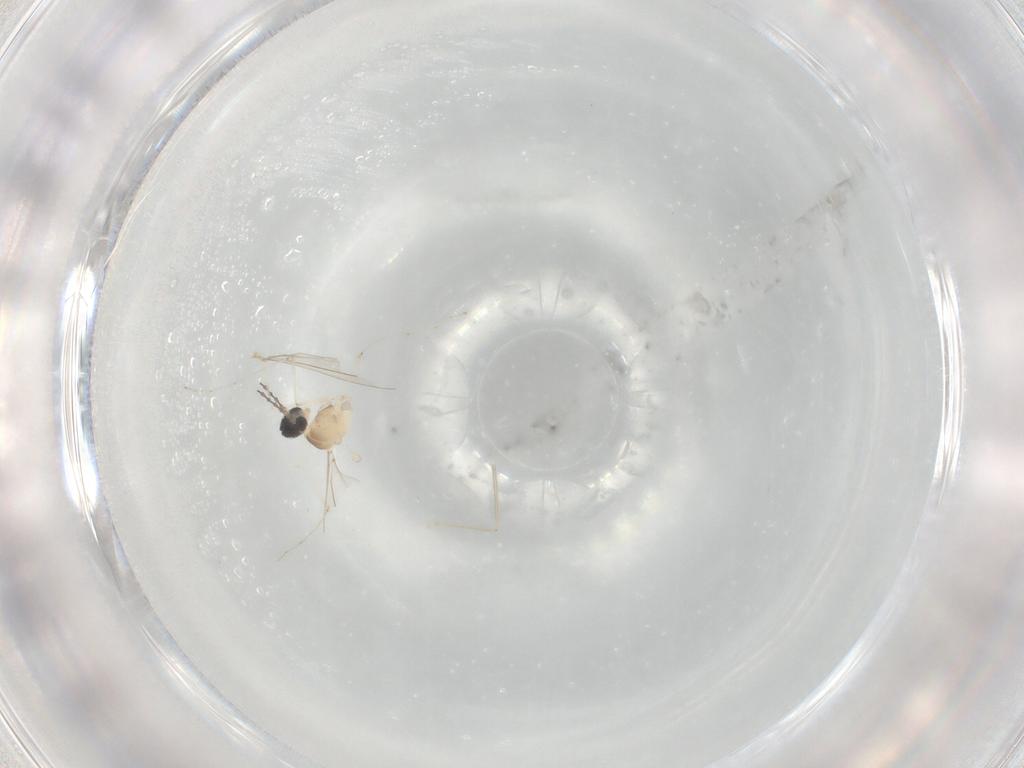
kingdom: Animalia
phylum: Arthropoda
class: Insecta
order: Diptera
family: Cecidomyiidae
